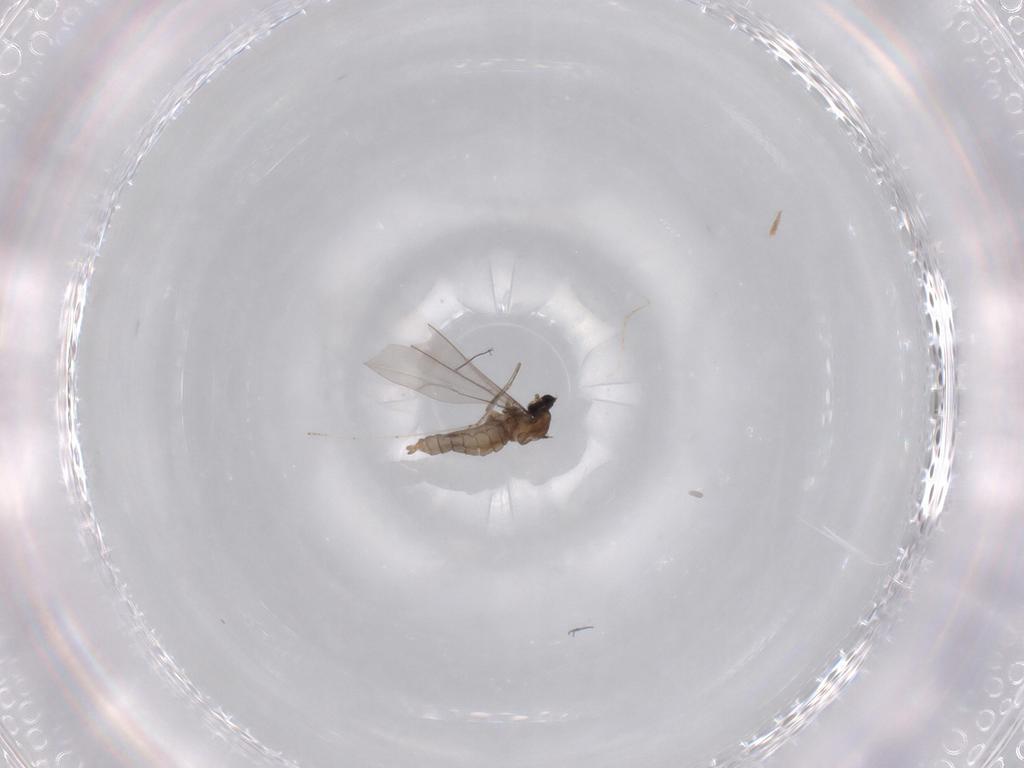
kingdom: Animalia
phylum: Arthropoda
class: Insecta
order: Diptera
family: Cecidomyiidae
